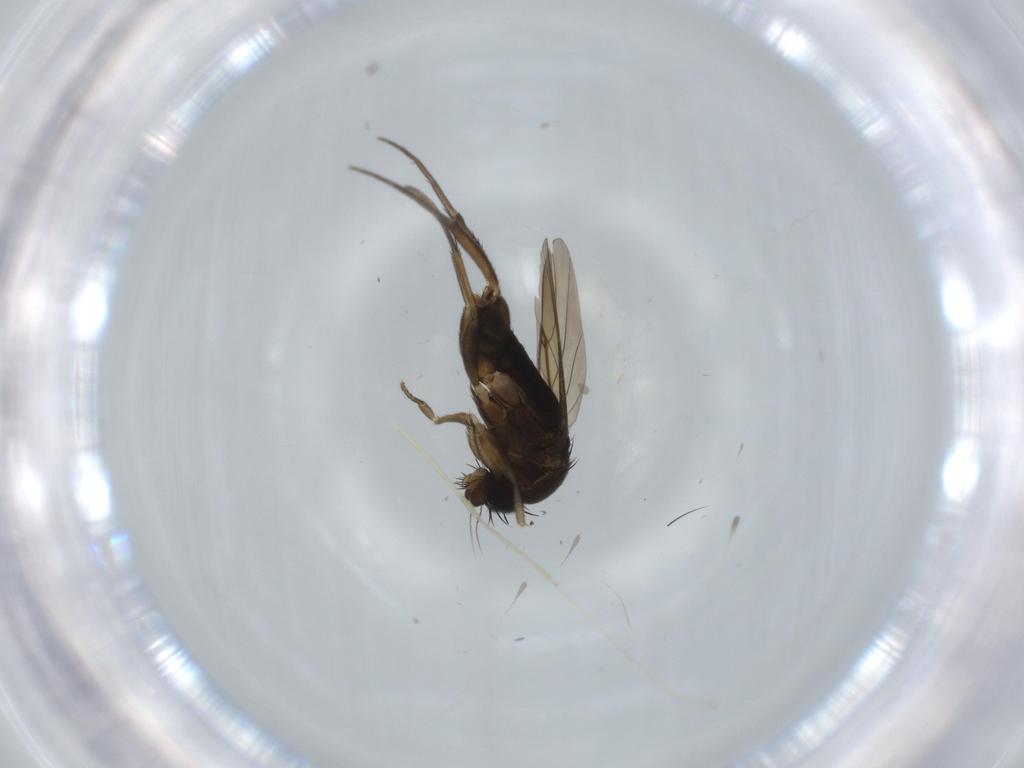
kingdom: Animalia
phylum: Arthropoda
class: Insecta
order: Diptera
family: Phoridae
